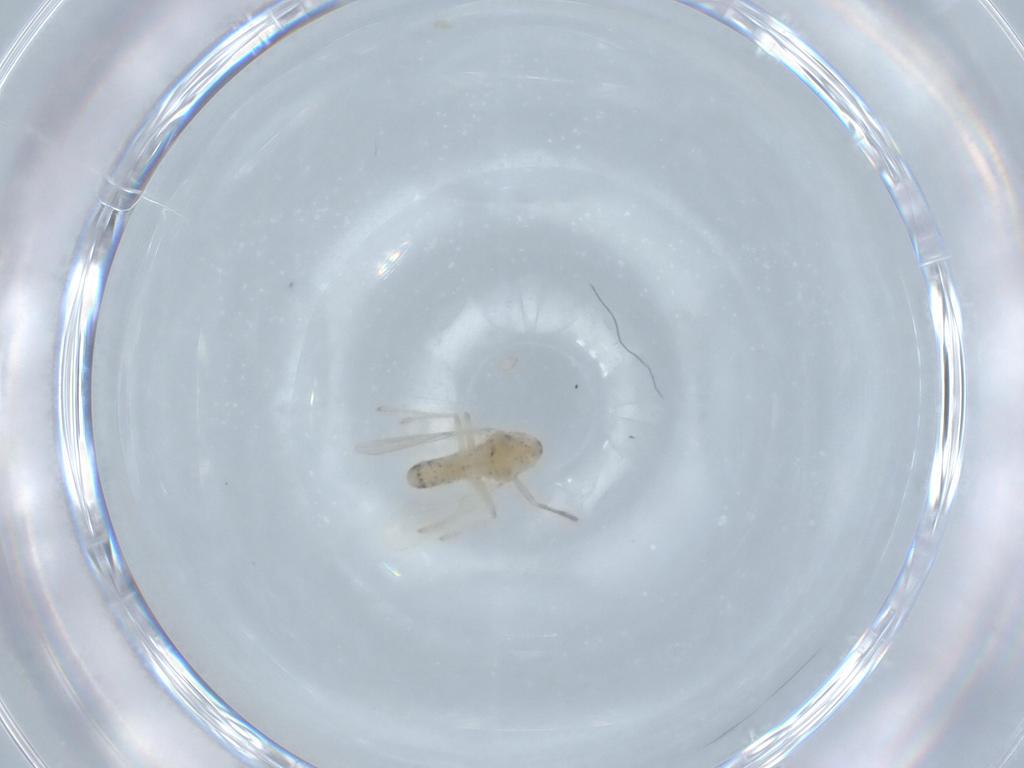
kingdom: Animalia
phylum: Arthropoda
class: Insecta
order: Diptera
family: Chironomidae
